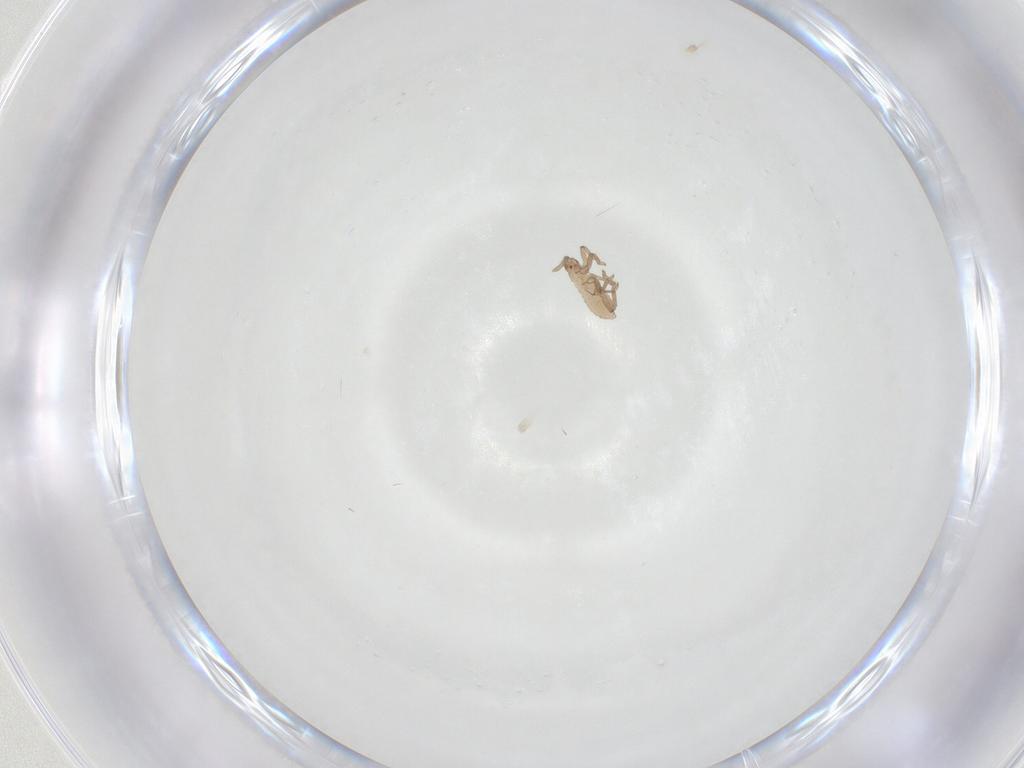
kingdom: Animalia
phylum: Arthropoda
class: Insecta
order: Hemiptera
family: Aphididae
